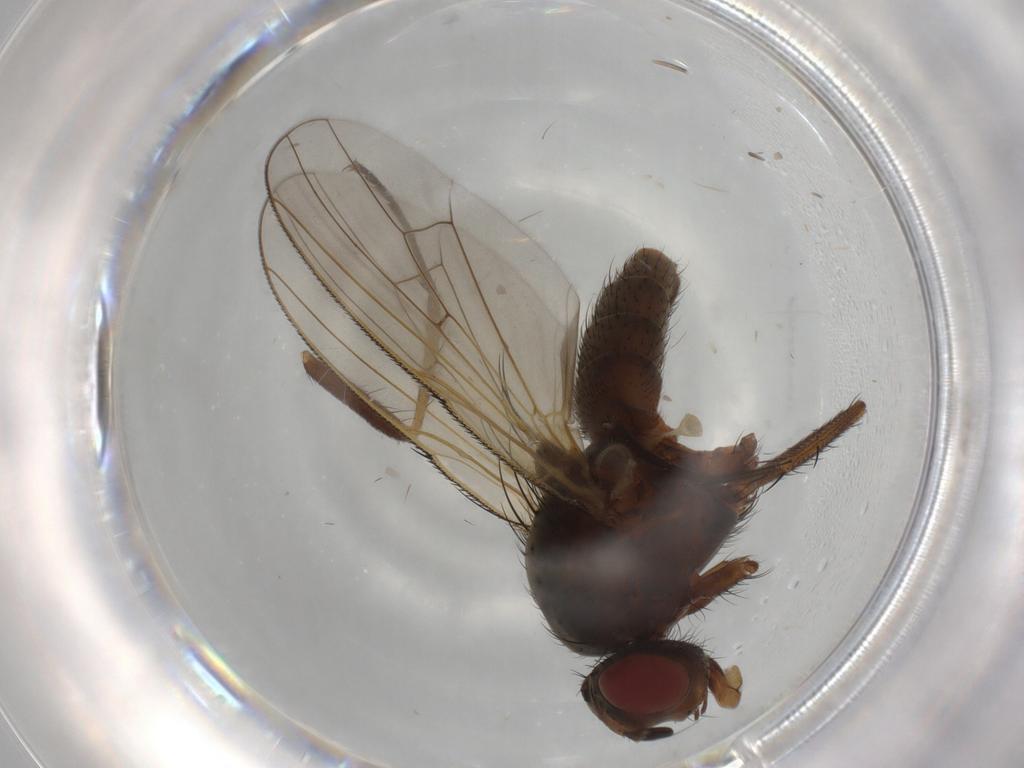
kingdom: Animalia
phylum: Arthropoda
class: Insecta
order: Diptera
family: Anthomyiidae
